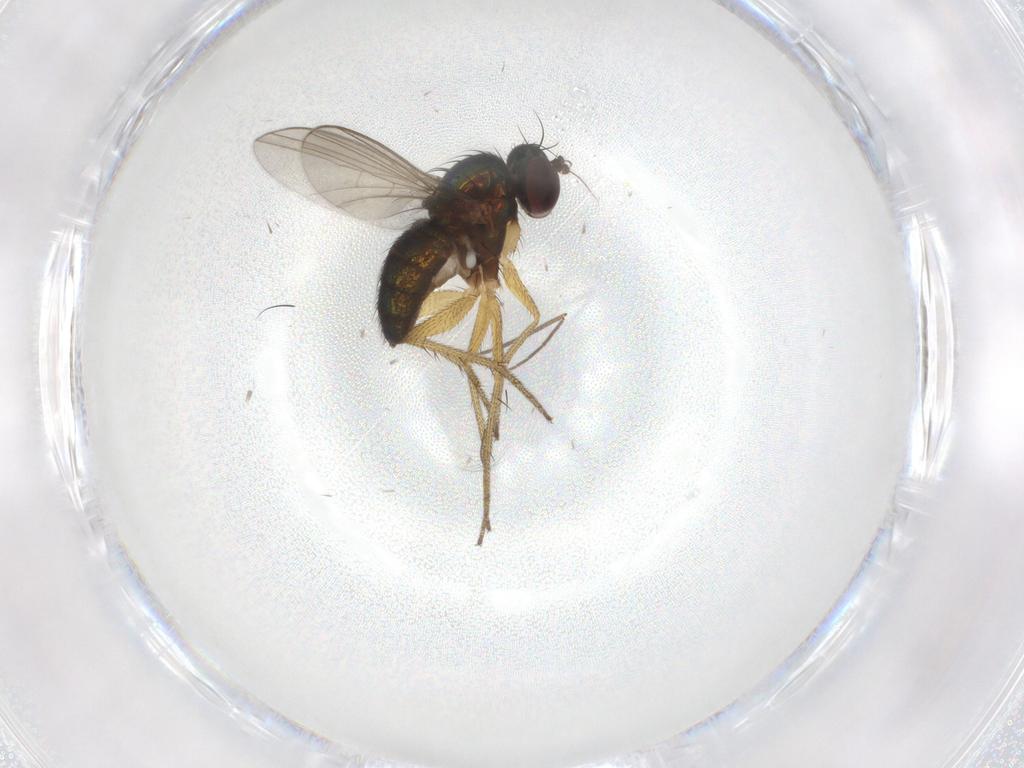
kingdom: Animalia
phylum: Arthropoda
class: Insecta
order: Diptera
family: Dolichopodidae
